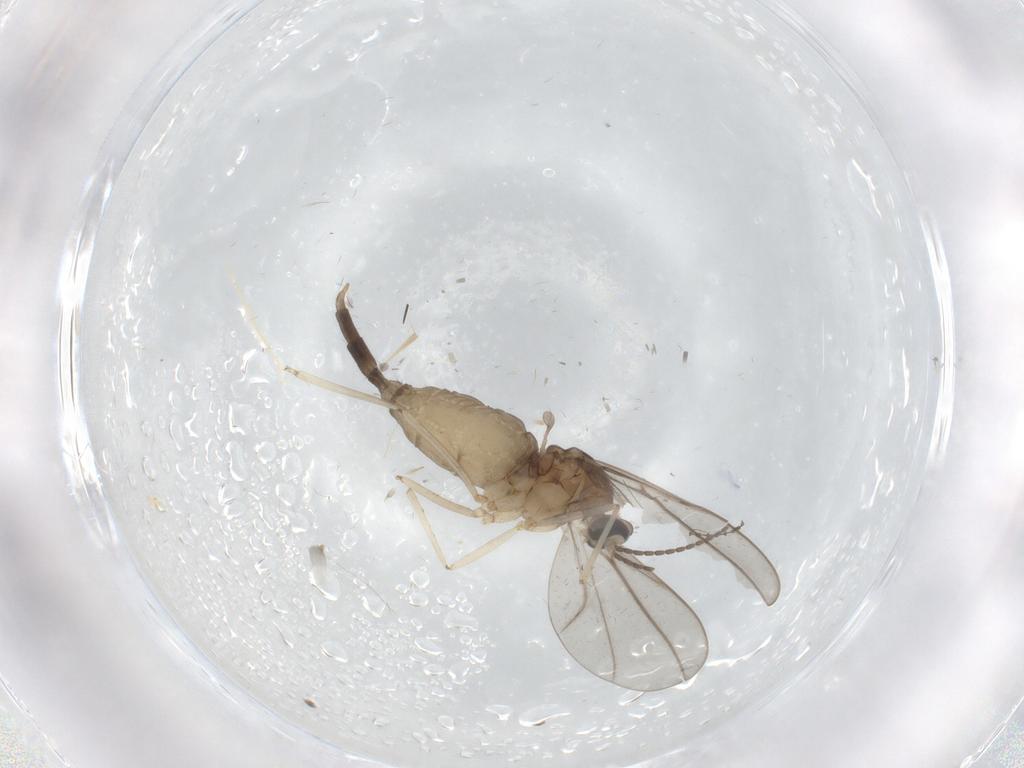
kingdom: Animalia
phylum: Arthropoda
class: Insecta
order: Diptera
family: Cecidomyiidae
